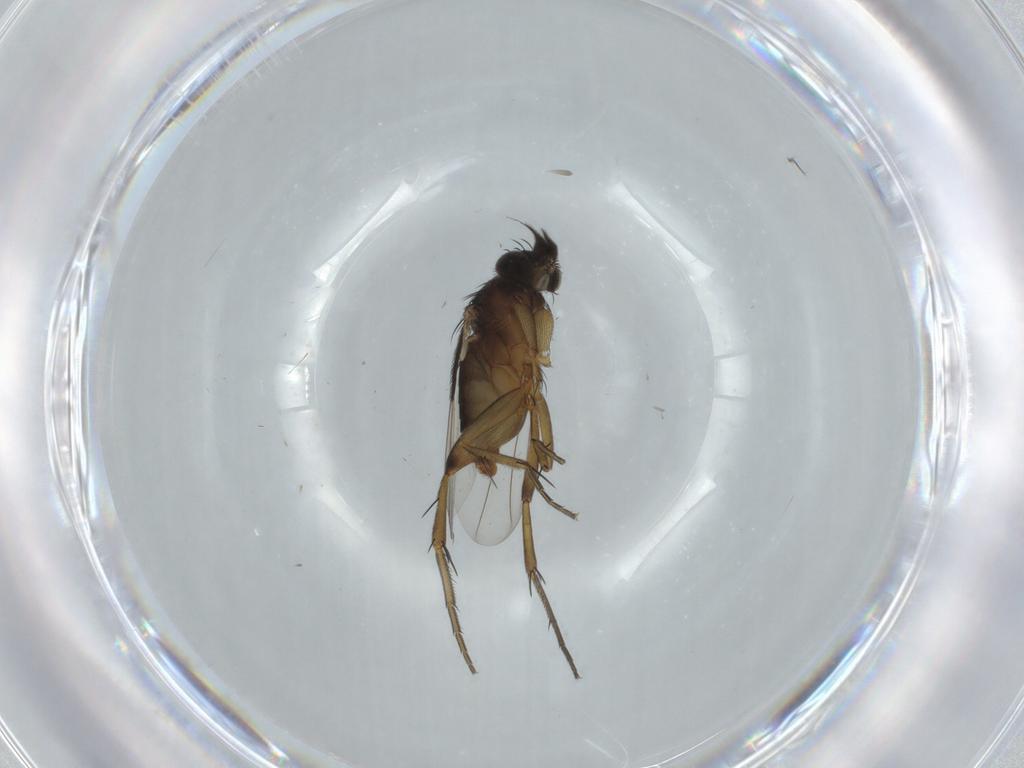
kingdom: Animalia
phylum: Arthropoda
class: Insecta
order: Diptera
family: Phoridae
